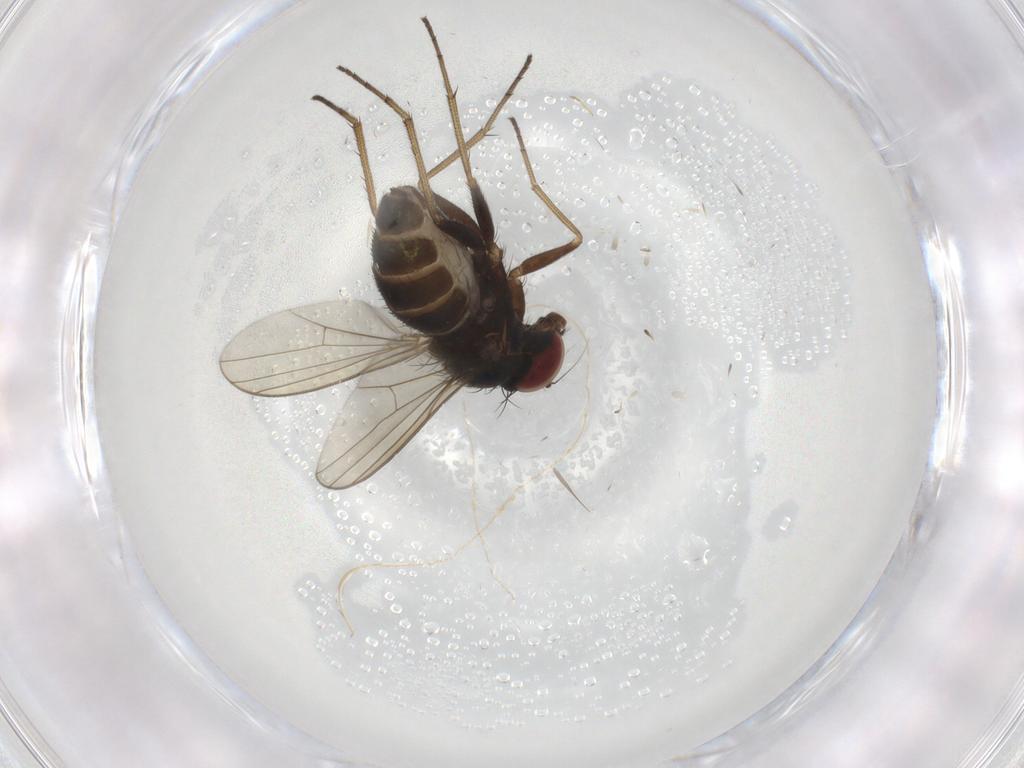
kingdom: Animalia
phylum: Arthropoda
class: Insecta
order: Diptera
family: Dolichopodidae
